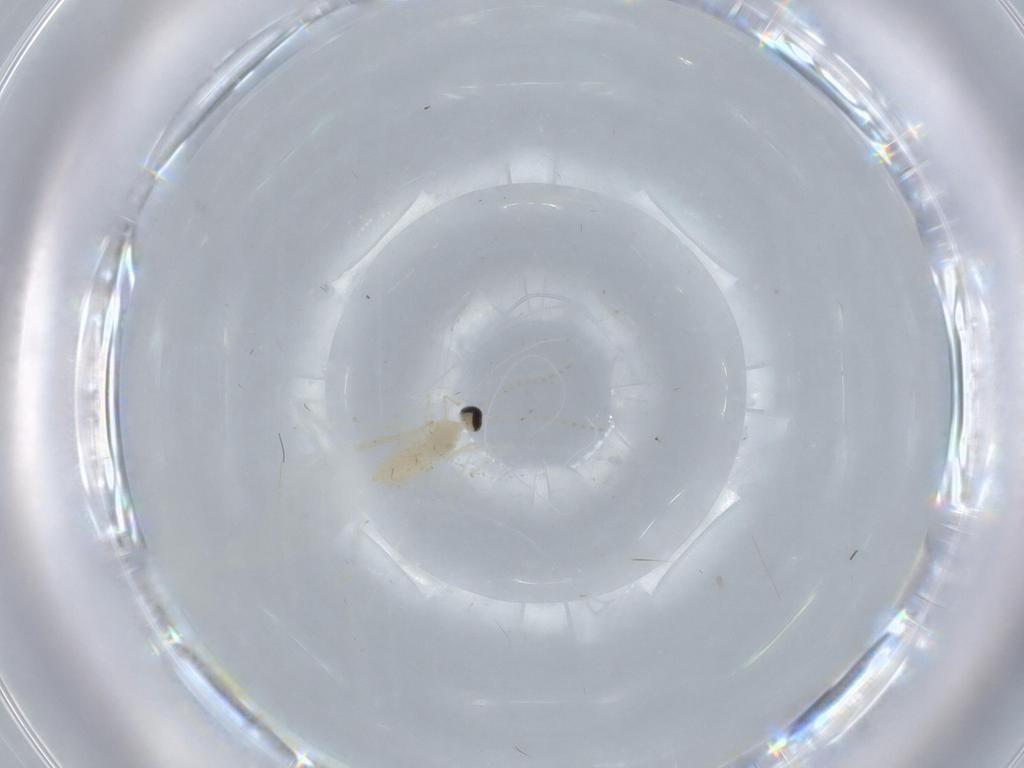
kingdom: Animalia
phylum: Arthropoda
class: Insecta
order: Diptera
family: Cecidomyiidae
